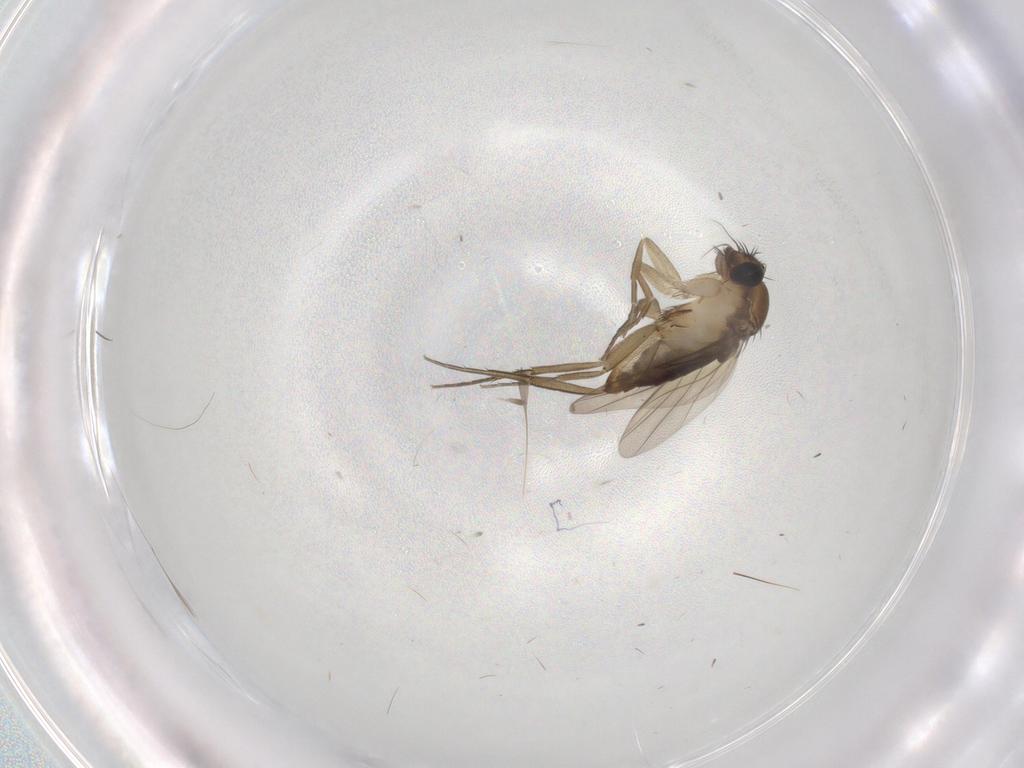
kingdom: Animalia
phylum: Arthropoda
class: Insecta
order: Diptera
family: Phoridae
